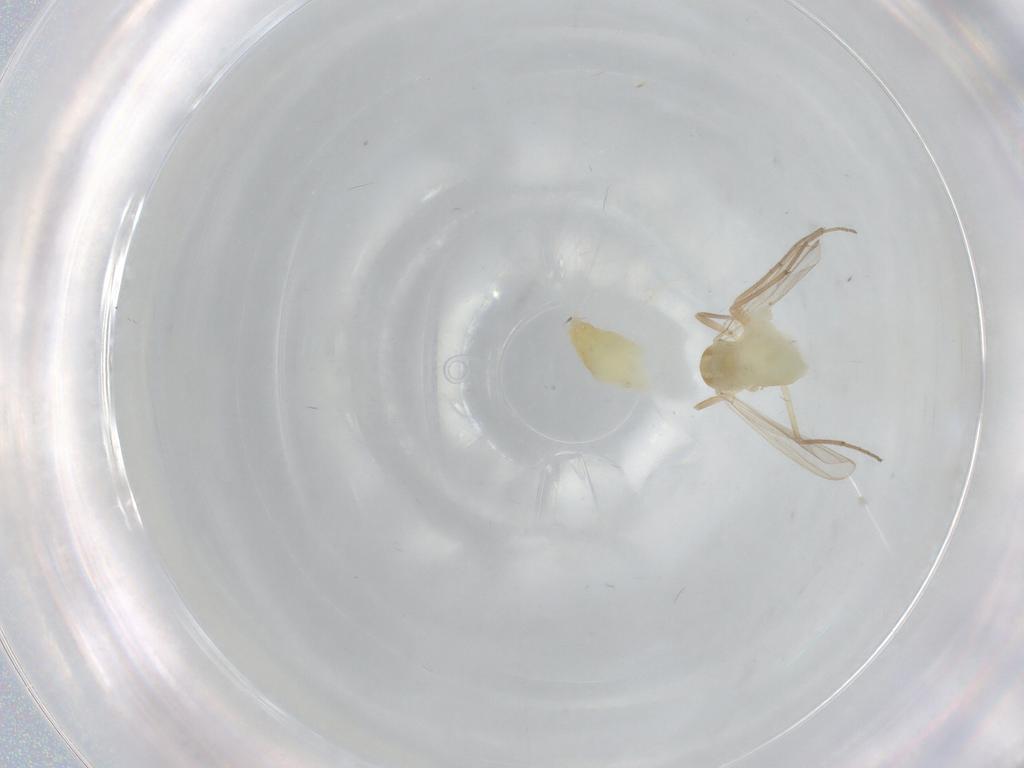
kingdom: Animalia
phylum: Arthropoda
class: Insecta
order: Diptera
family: Chironomidae
